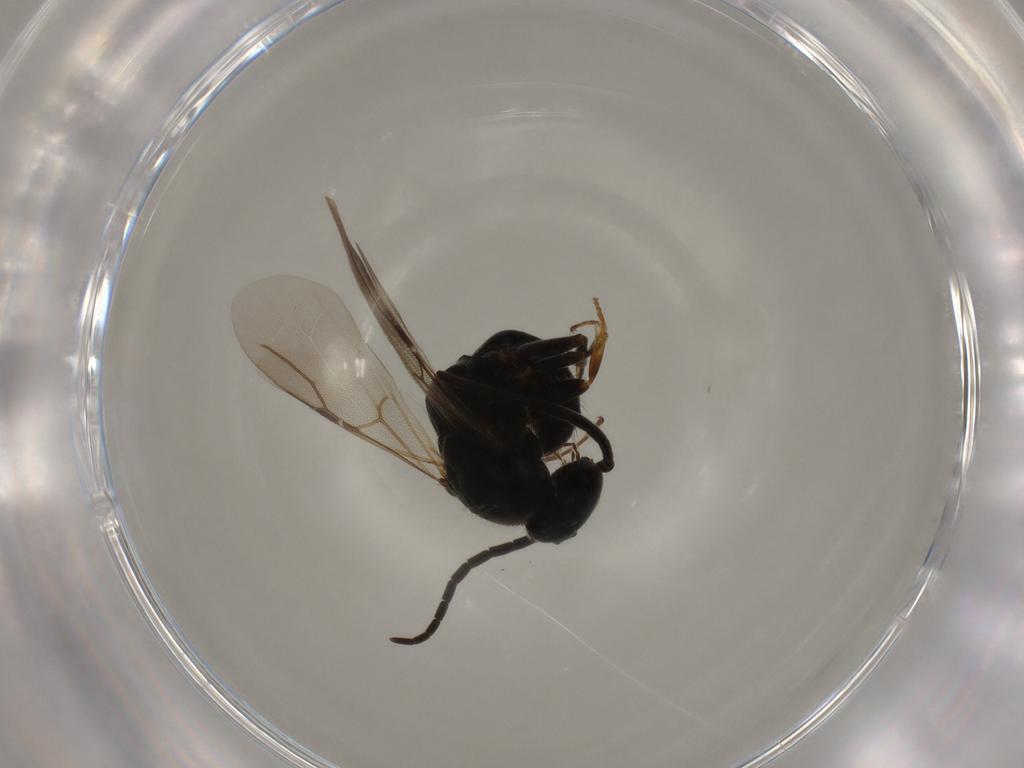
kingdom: Animalia
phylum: Arthropoda
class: Insecta
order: Hymenoptera
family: Bethylidae
